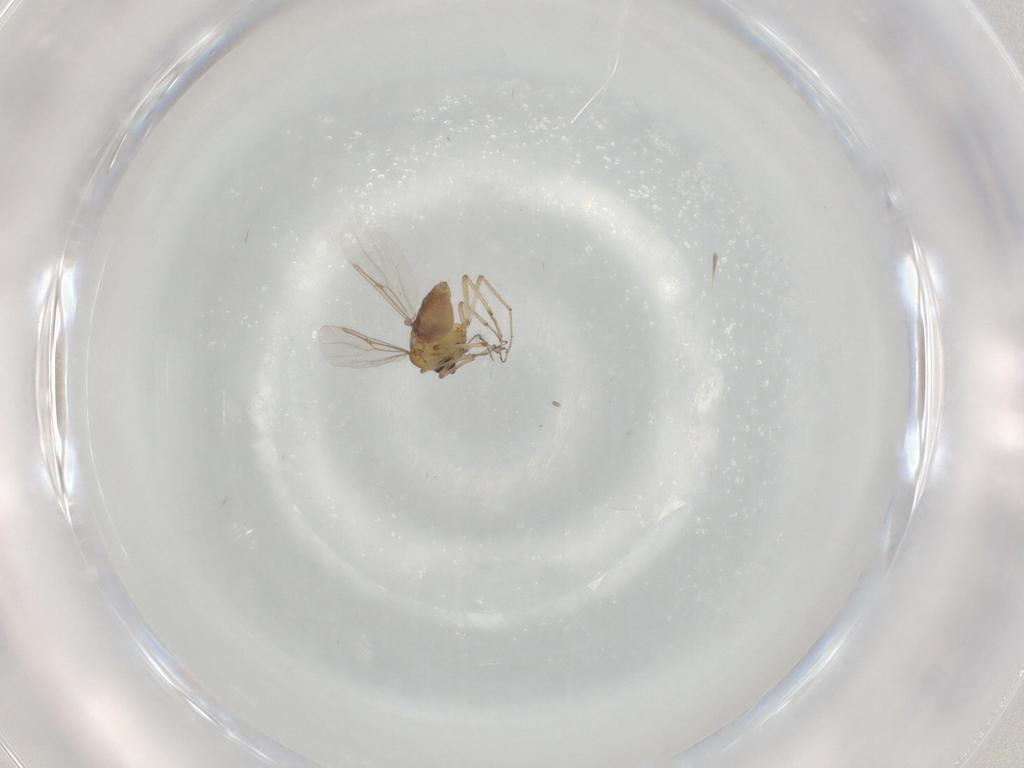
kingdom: Animalia
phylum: Arthropoda
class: Insecta
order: Diptera
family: Ceratopogonidae
